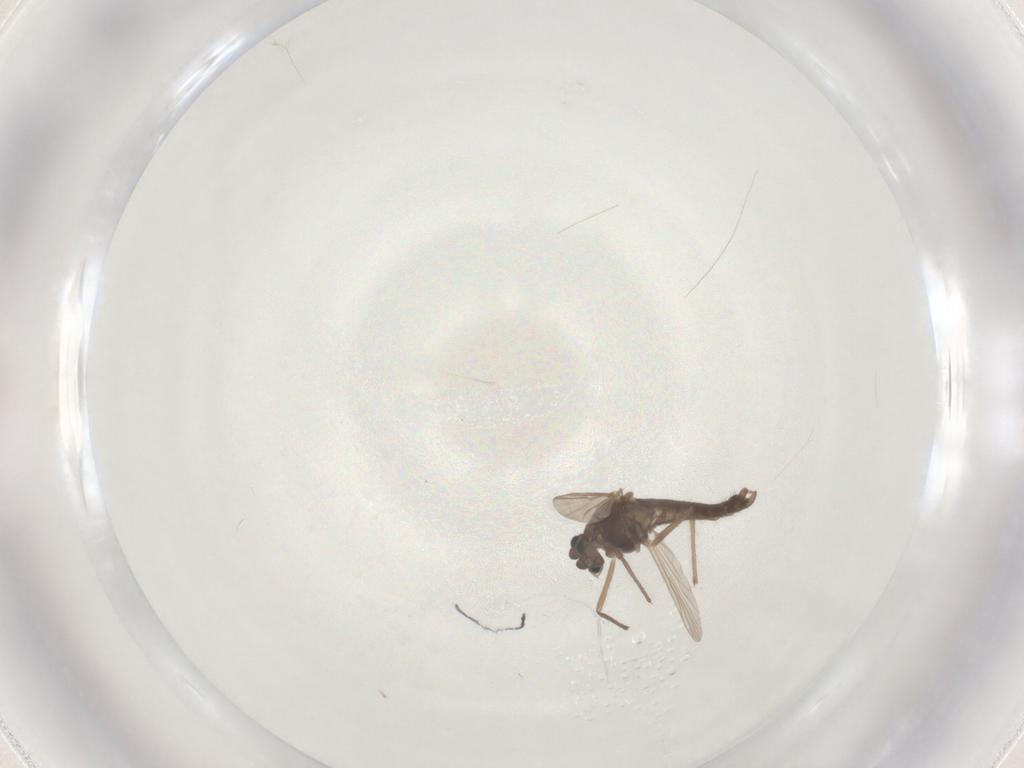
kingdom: Animalia
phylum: Arthropoda
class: Insecta
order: Diptera
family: Chironomidae
